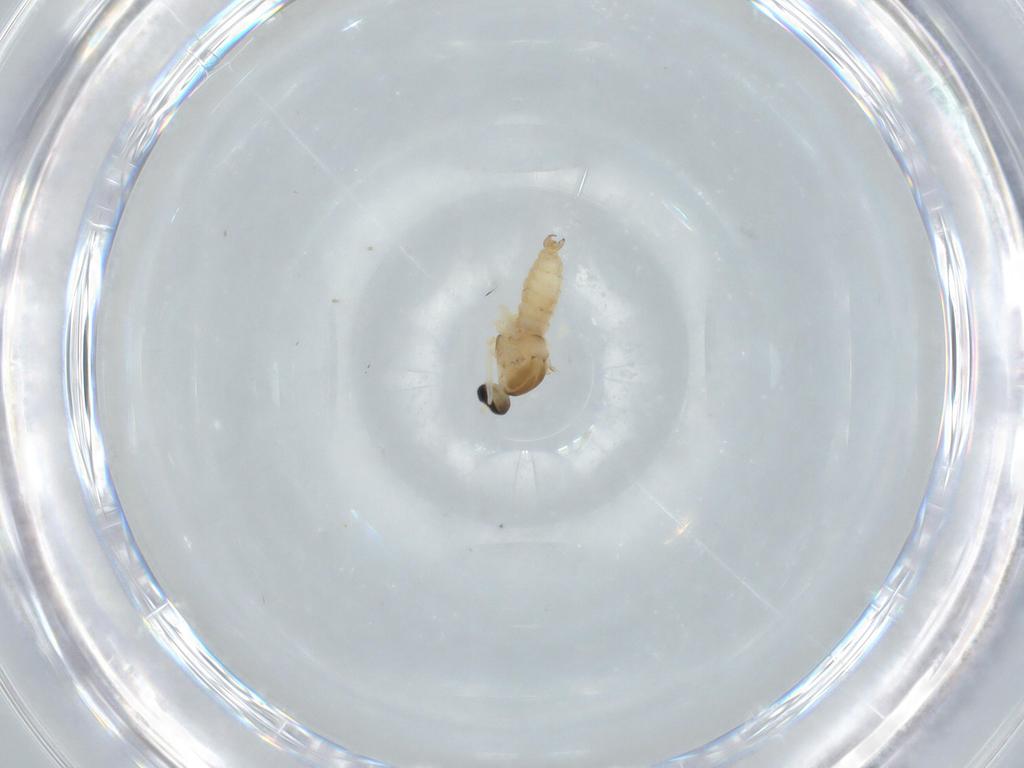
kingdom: Animalia
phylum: Arthropoda
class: Insecta
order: Diptera
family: Cecidomyiidae
